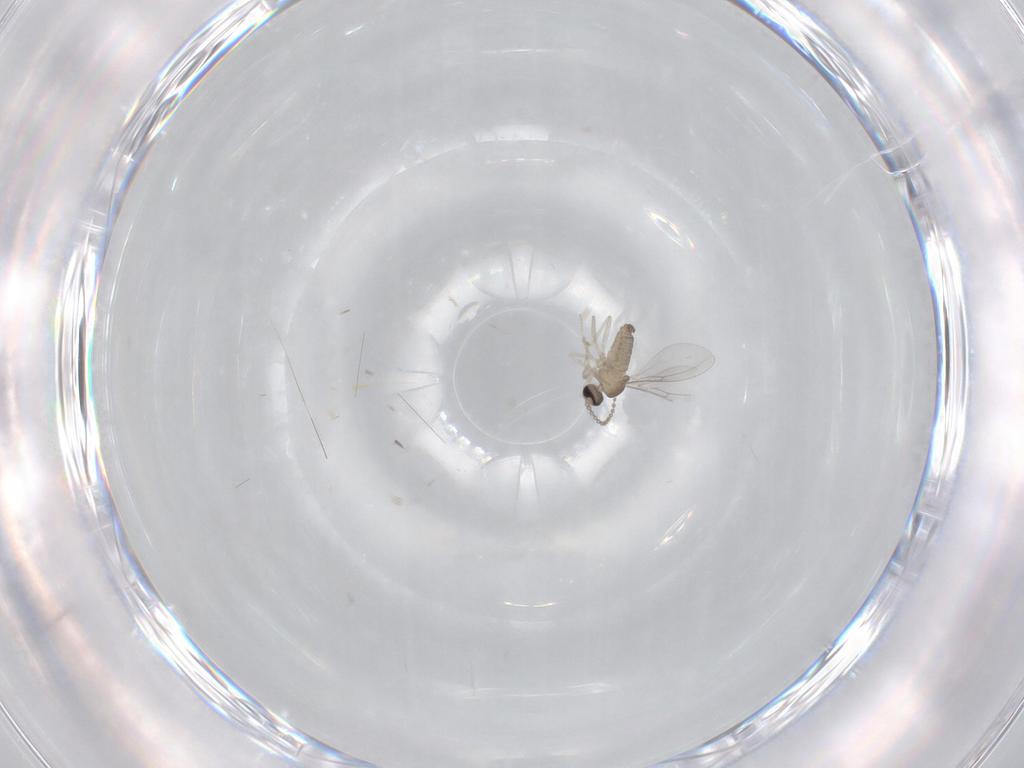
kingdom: Animalia
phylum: Arthropoda
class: Insecta
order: Diptera
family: Cecidomyiidae
